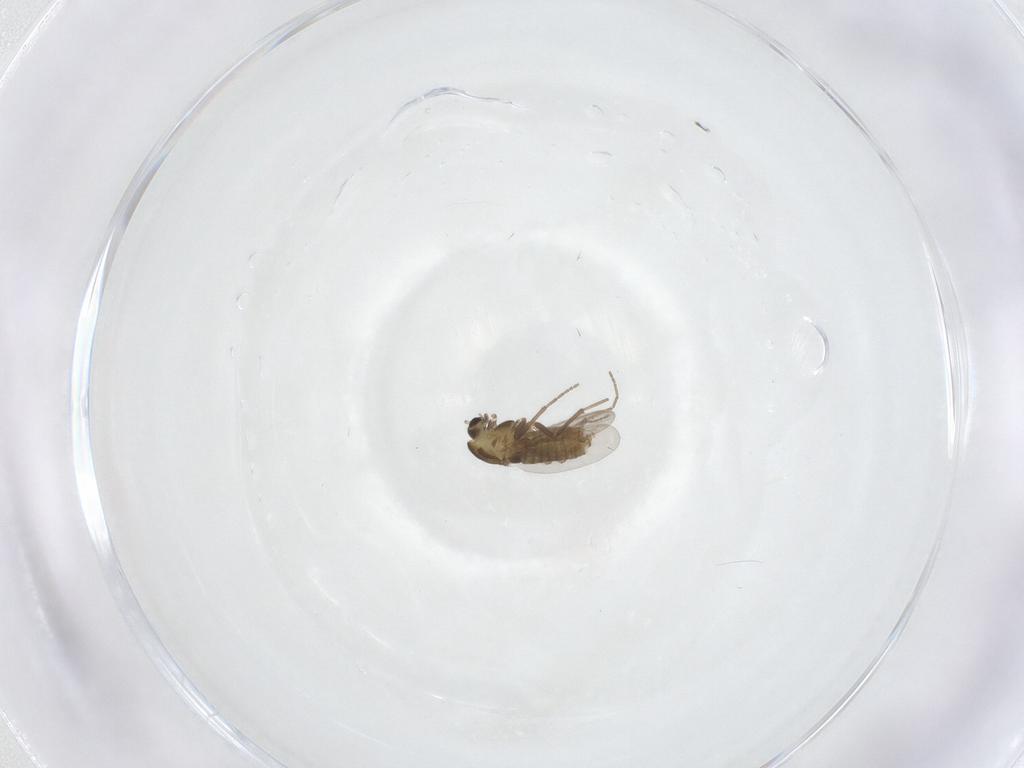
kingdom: Animalia
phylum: Arthropoda
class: Insecta
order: Diptera
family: Chironomidae
